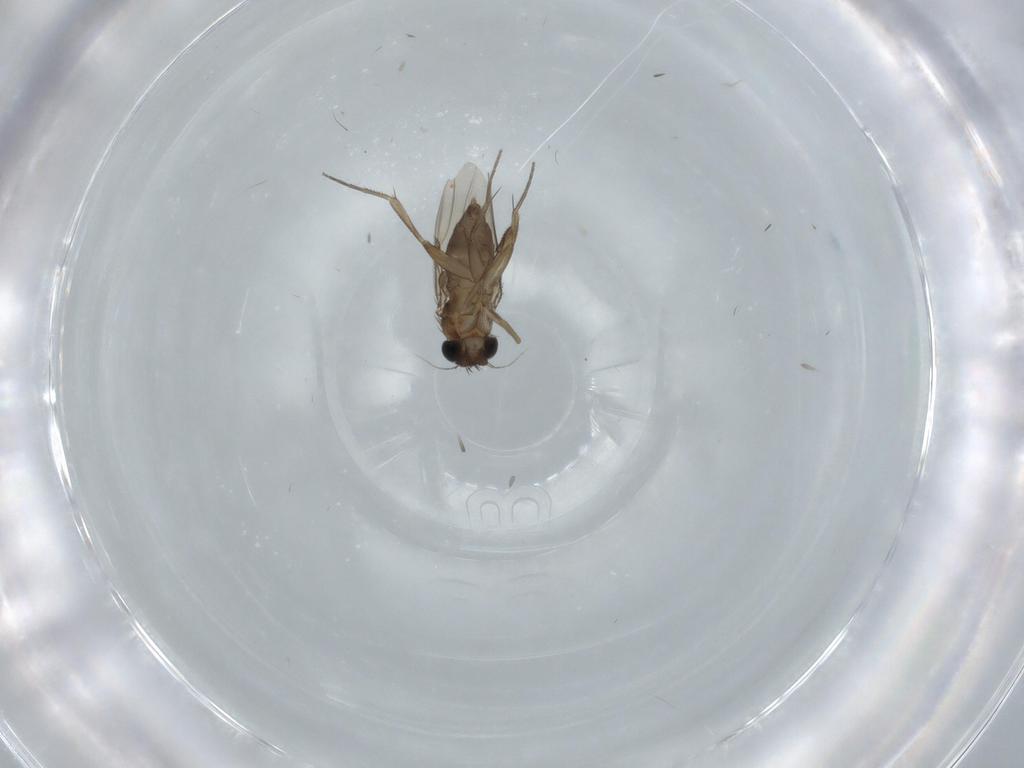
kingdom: Animalia
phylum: Arthropoda
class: Insecta
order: Diptera
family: Phoridae
